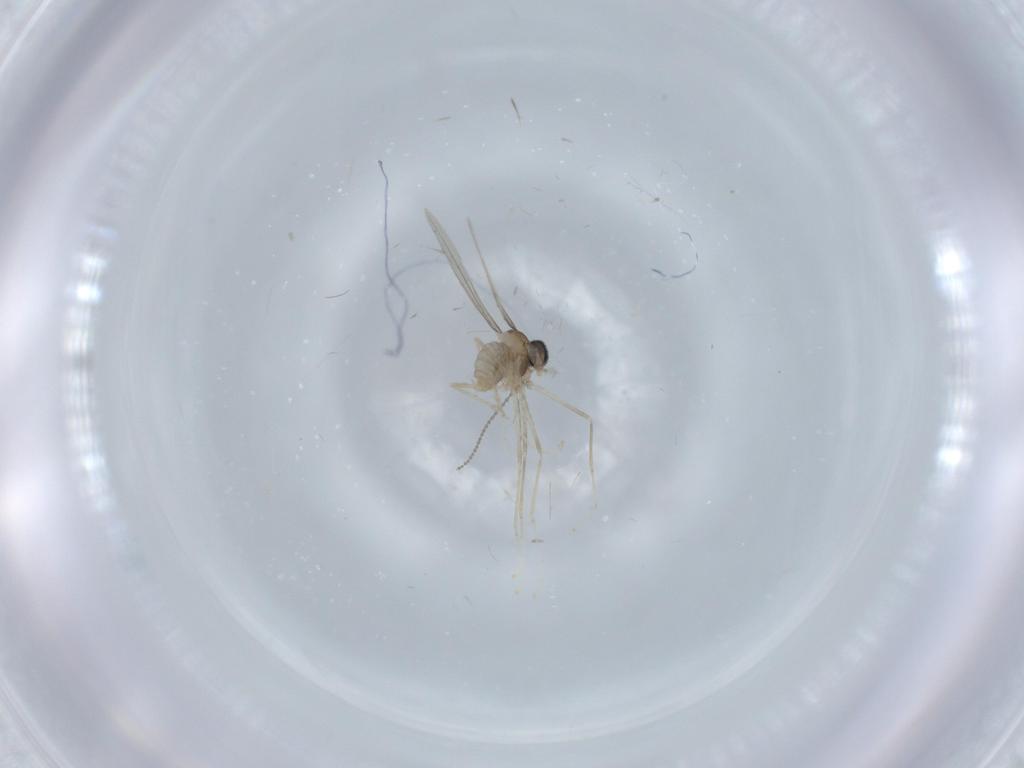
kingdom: Animalia
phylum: Arthropoda
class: Insecta
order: Diptera
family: Cecidomyiidae
